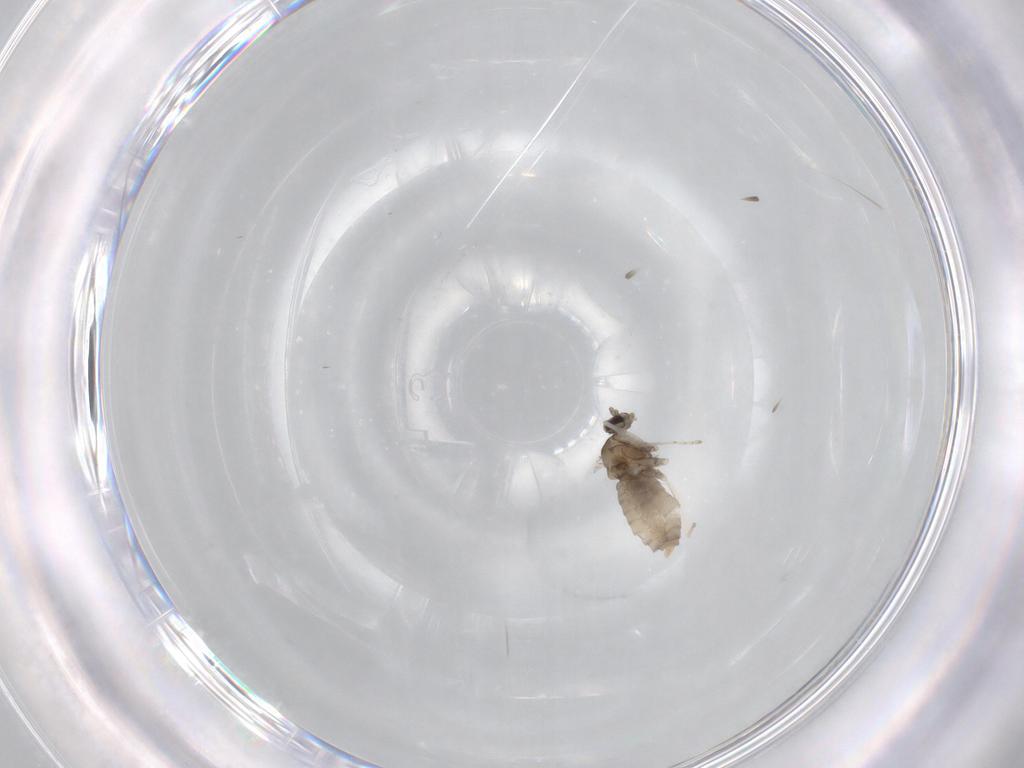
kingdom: Animalia
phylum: Arthropoda
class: Insecta
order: Diptera
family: Cecidomyiidae
